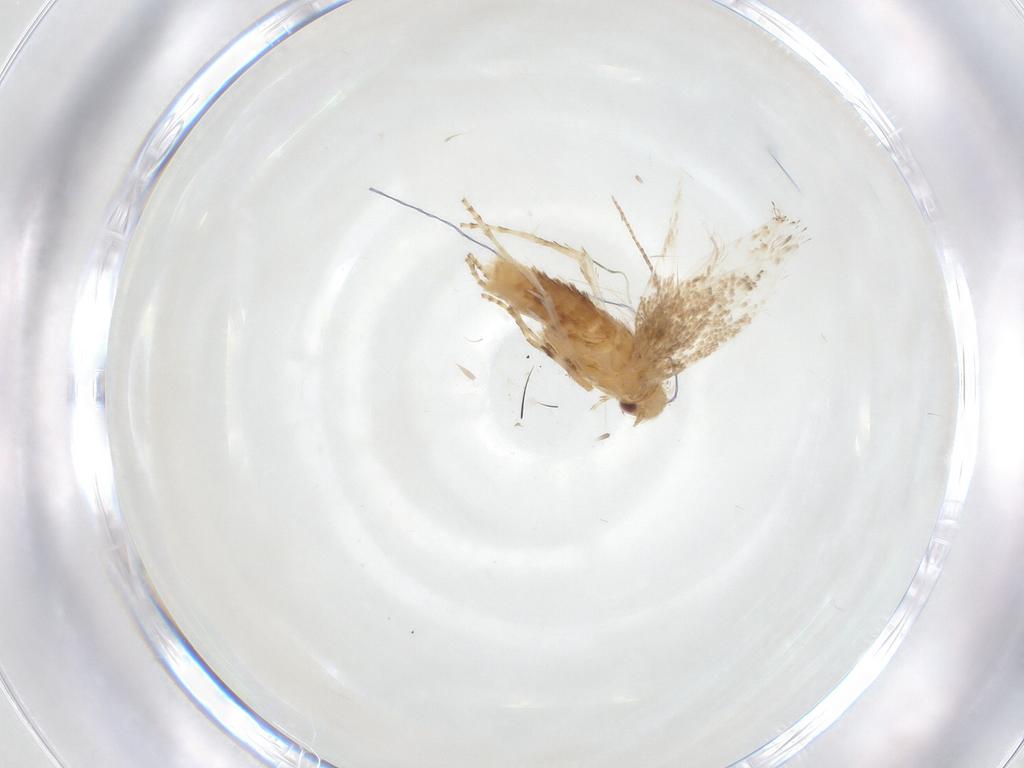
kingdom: Animalia
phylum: Arthropoda
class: Insecta
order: Lepidoptera
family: Gracillariidae
